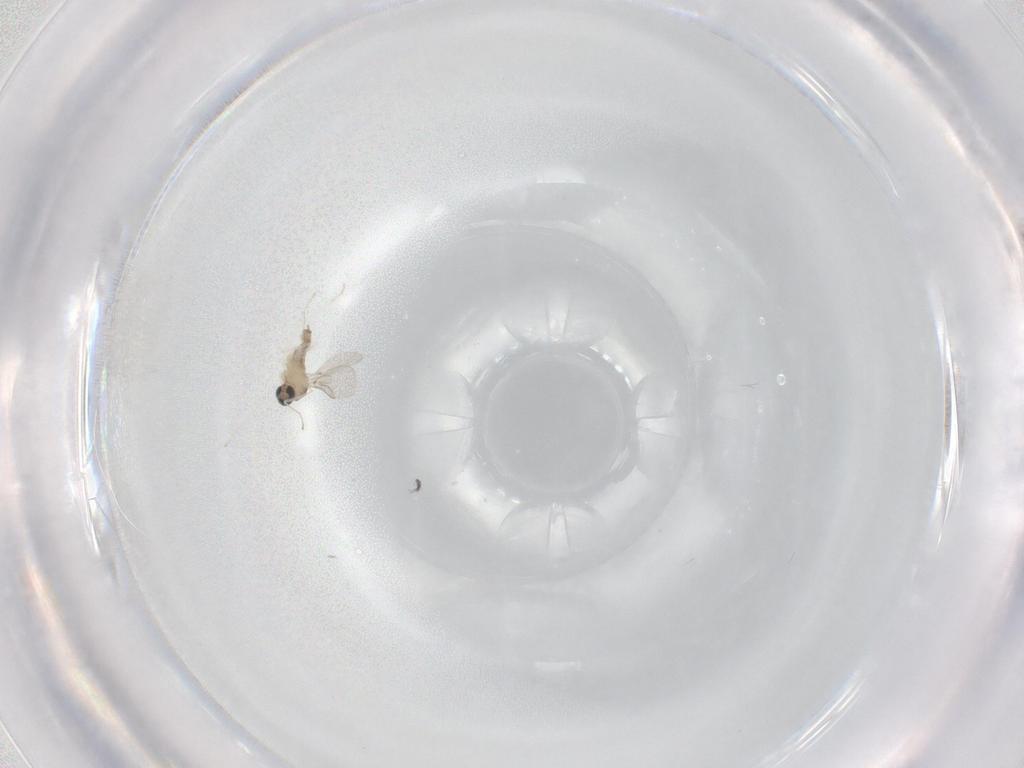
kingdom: Animalia
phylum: Arthropoda
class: Insecta
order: Diptera
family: Cecidomyiidae
